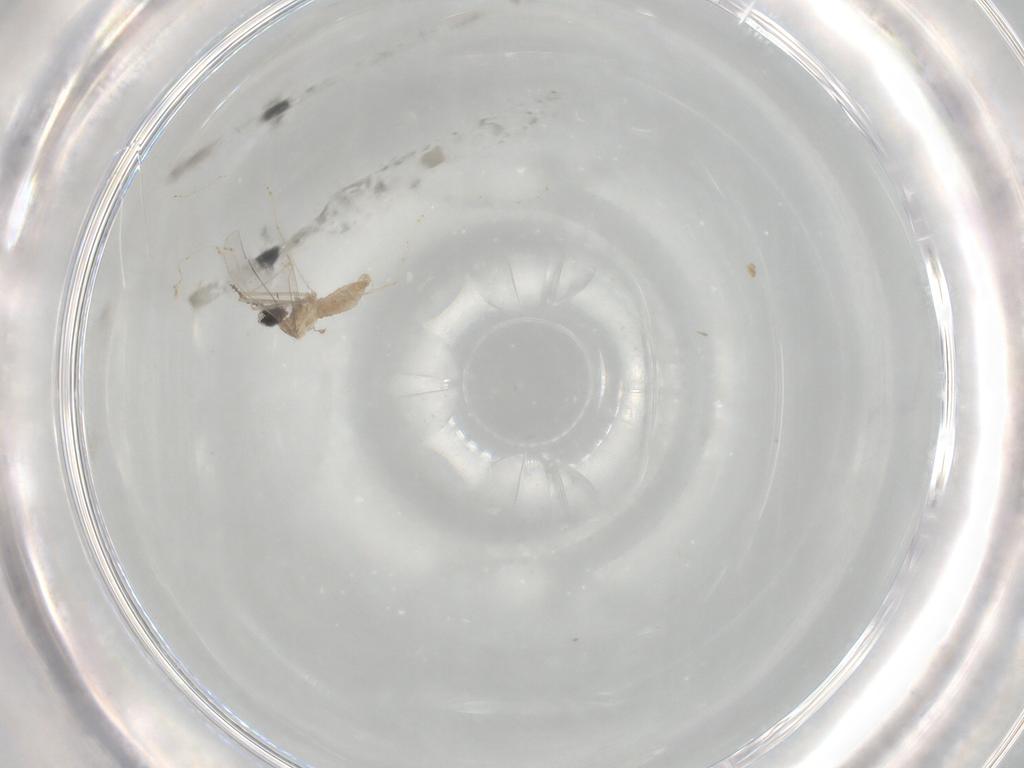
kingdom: Animalia
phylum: Arthropoda
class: Insecta
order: Diptera
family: Cecidomyiidae
